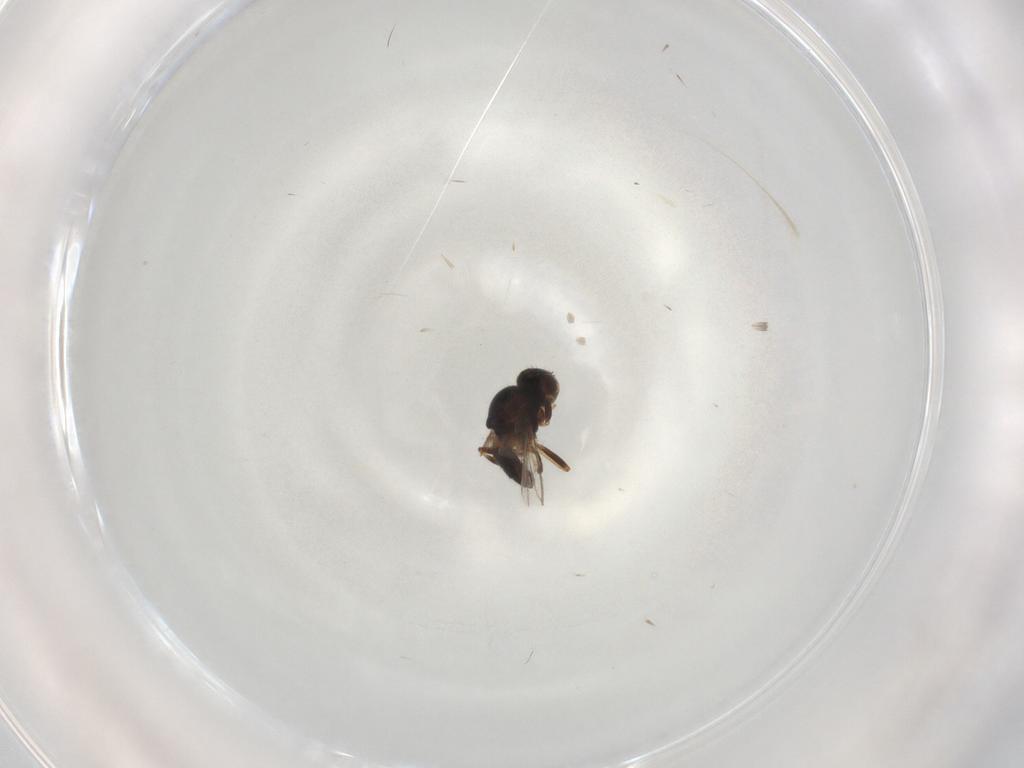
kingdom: Animalia
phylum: Arthropoda
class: Insecta
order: Diptera
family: Chloropidae
